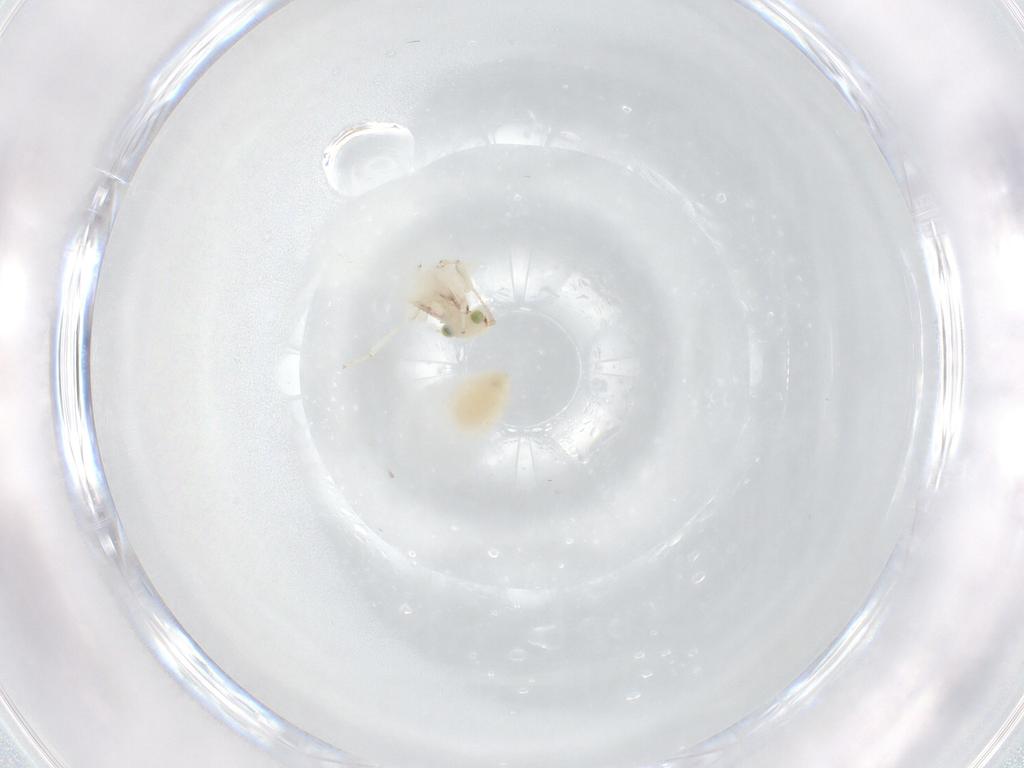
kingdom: Animalia
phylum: Arthropoda
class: Insecta
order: Psocodea
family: Lepidopsocidae
